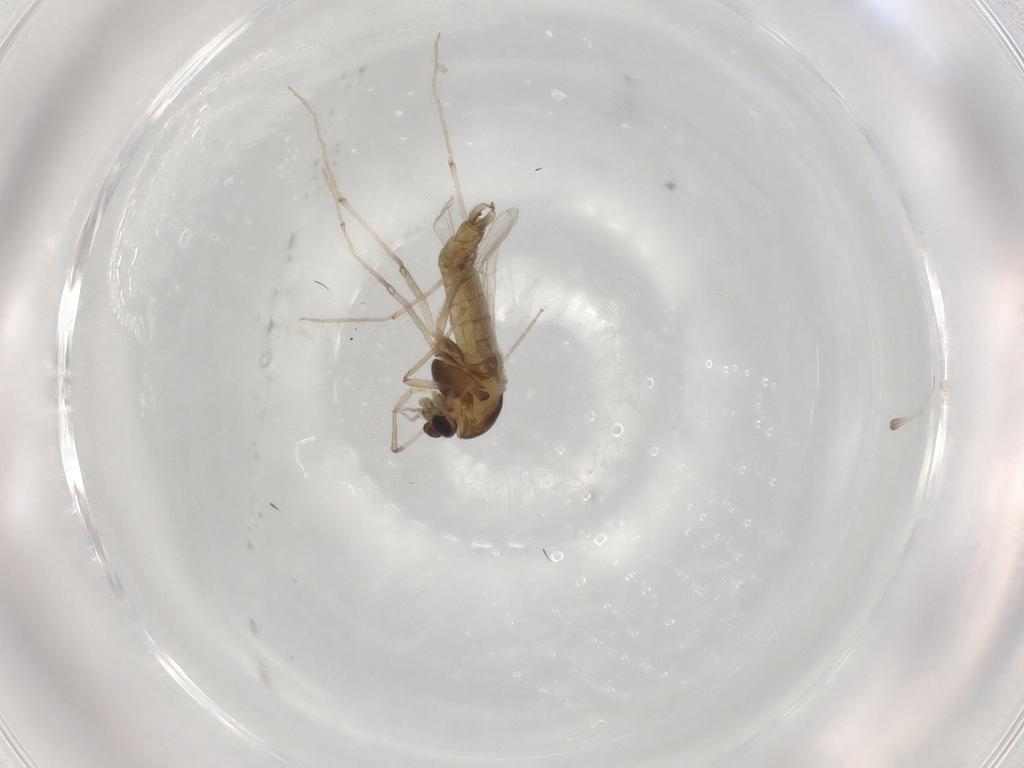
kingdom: Animalia
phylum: Arthropoda
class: Insecta
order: Diptera
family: Chironomidae
